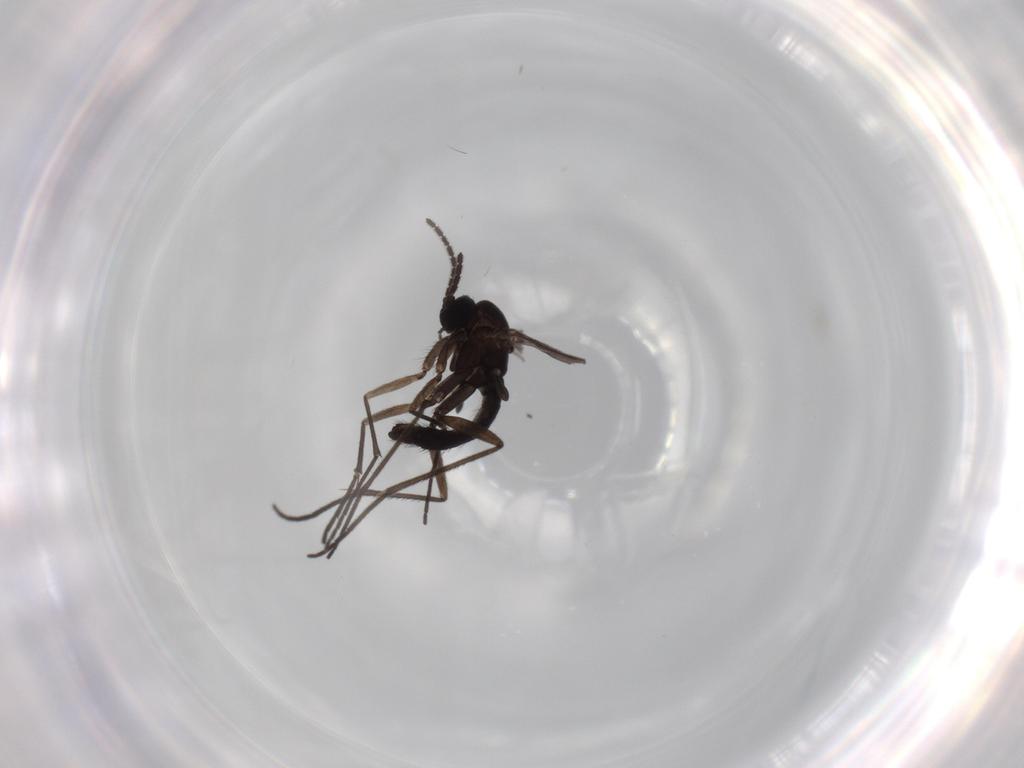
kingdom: Animalia
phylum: Arthropoda
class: Insecta
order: Diptera
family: Sciaridae
